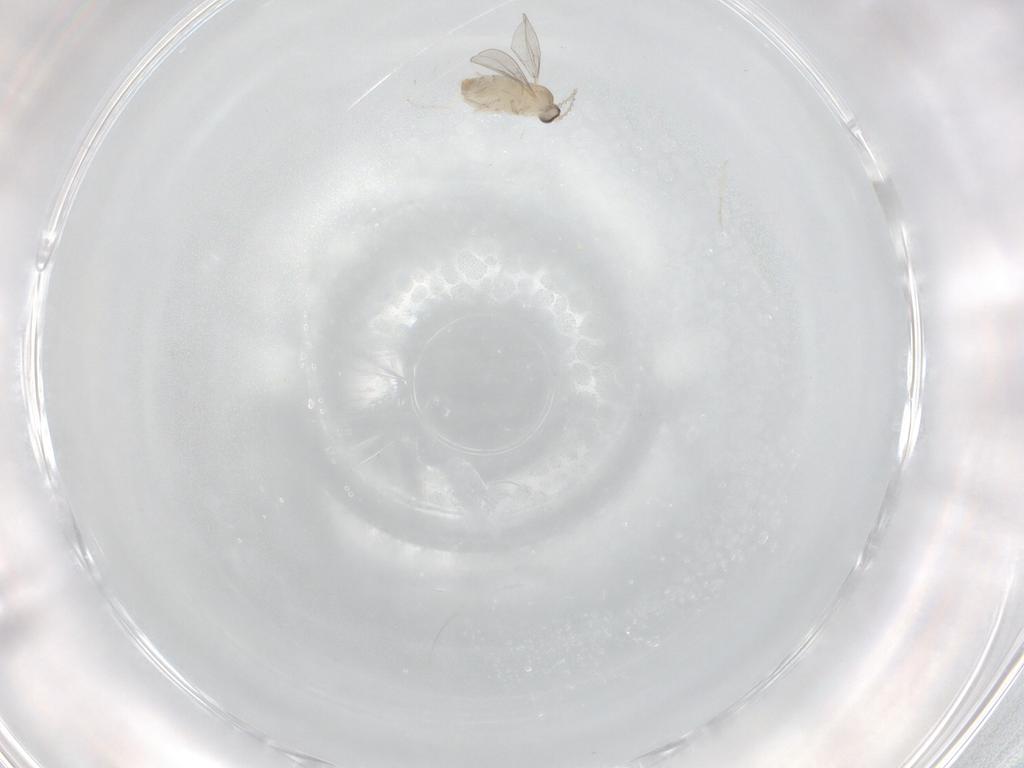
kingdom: Animalia
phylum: Arthropoda
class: Insecta
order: Diptera
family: Cecidomyiidae
